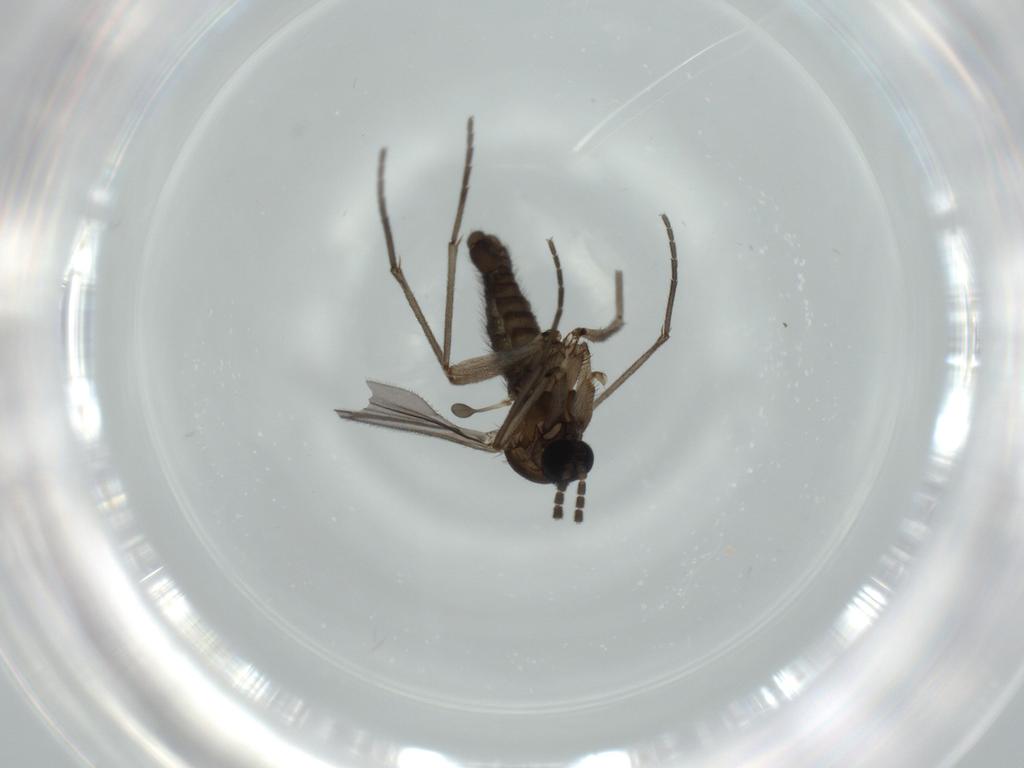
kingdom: Animalia
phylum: Arthropoda
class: Insecta
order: Diptera
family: Sciaridae
